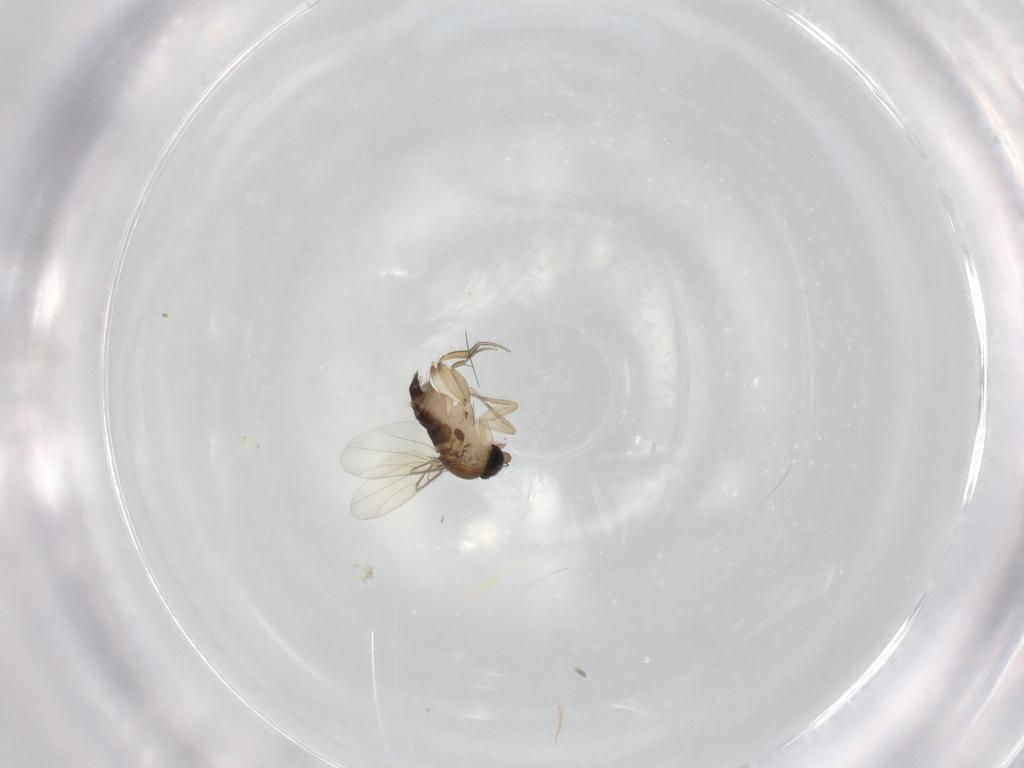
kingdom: Animalia
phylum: Arthropoda
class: Insecta
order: Diptera
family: Phoridae
